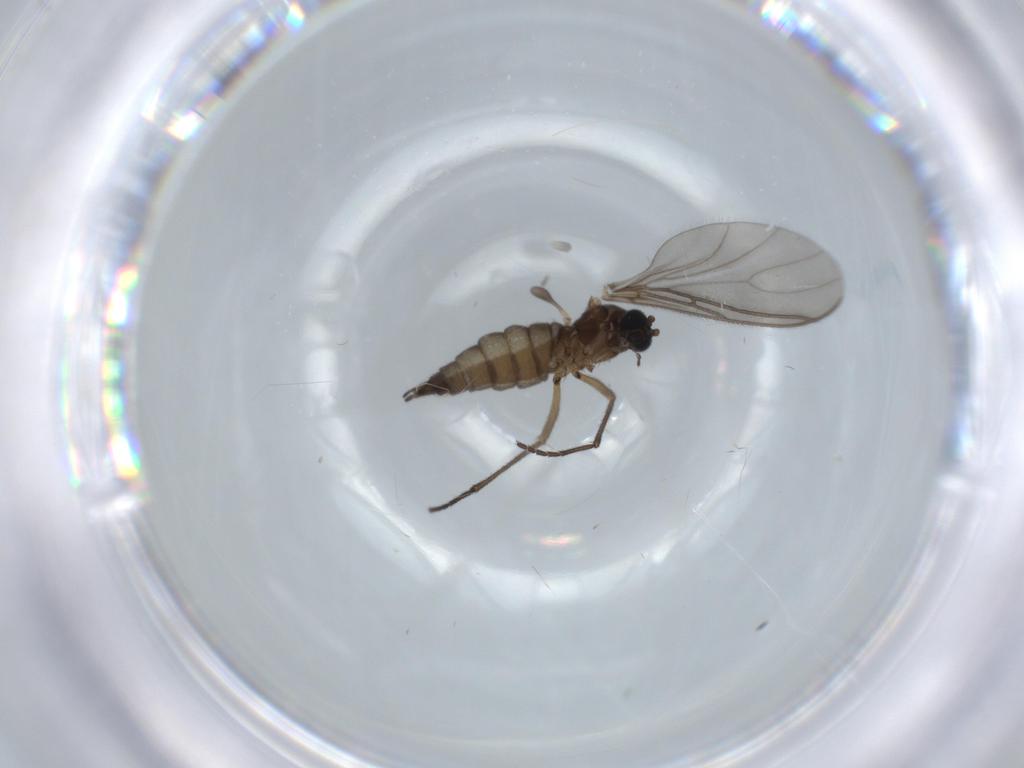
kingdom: Animalia
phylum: Arthropoda
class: Insecta
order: Diptera
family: Sciaridae
